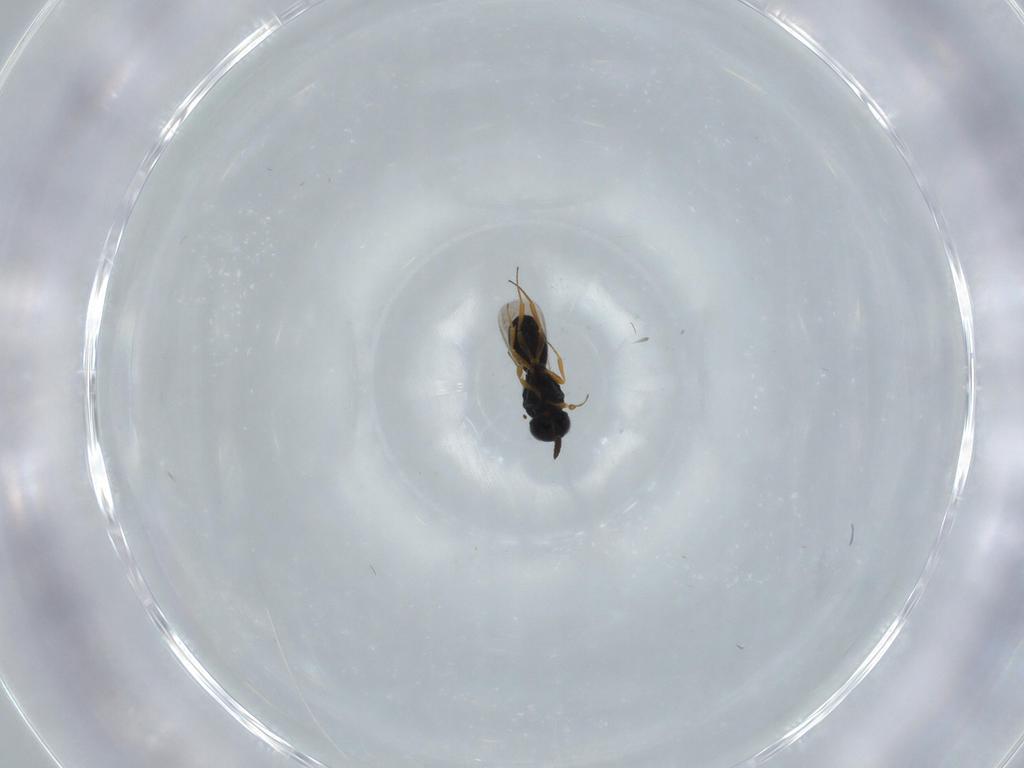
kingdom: Animalia
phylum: Arthropoda
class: Insecta
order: Hymenoptera
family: Scelionidae
